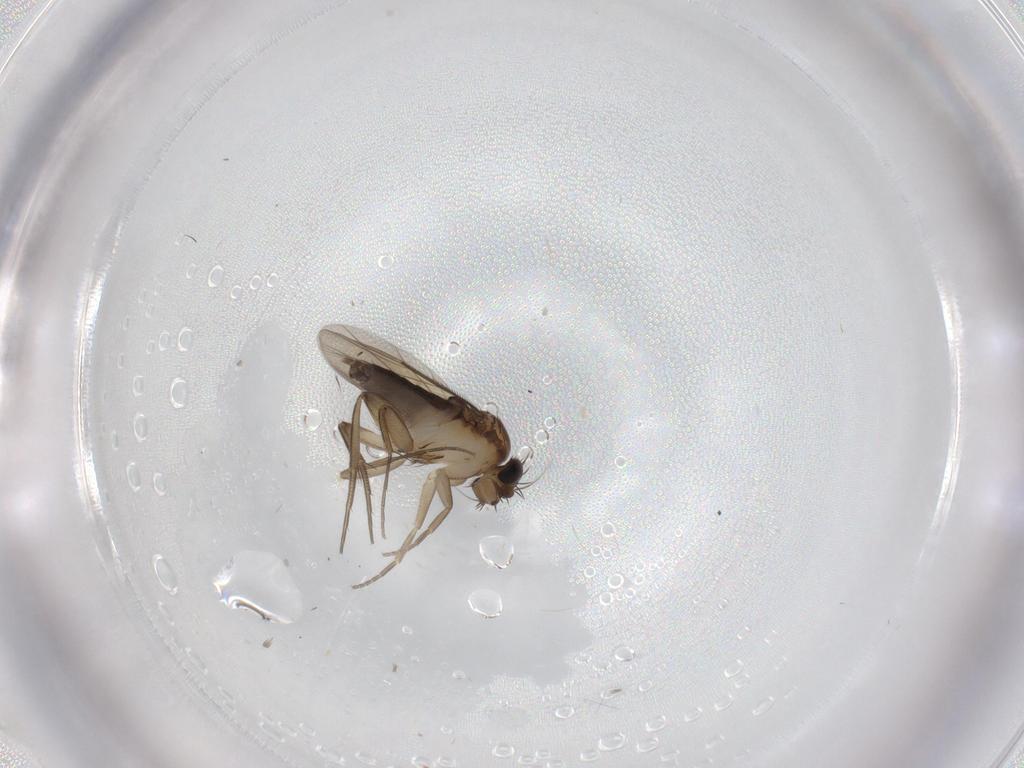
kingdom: Animalia
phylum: Arthropoda
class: Insecta
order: Diptera
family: Phoridae
